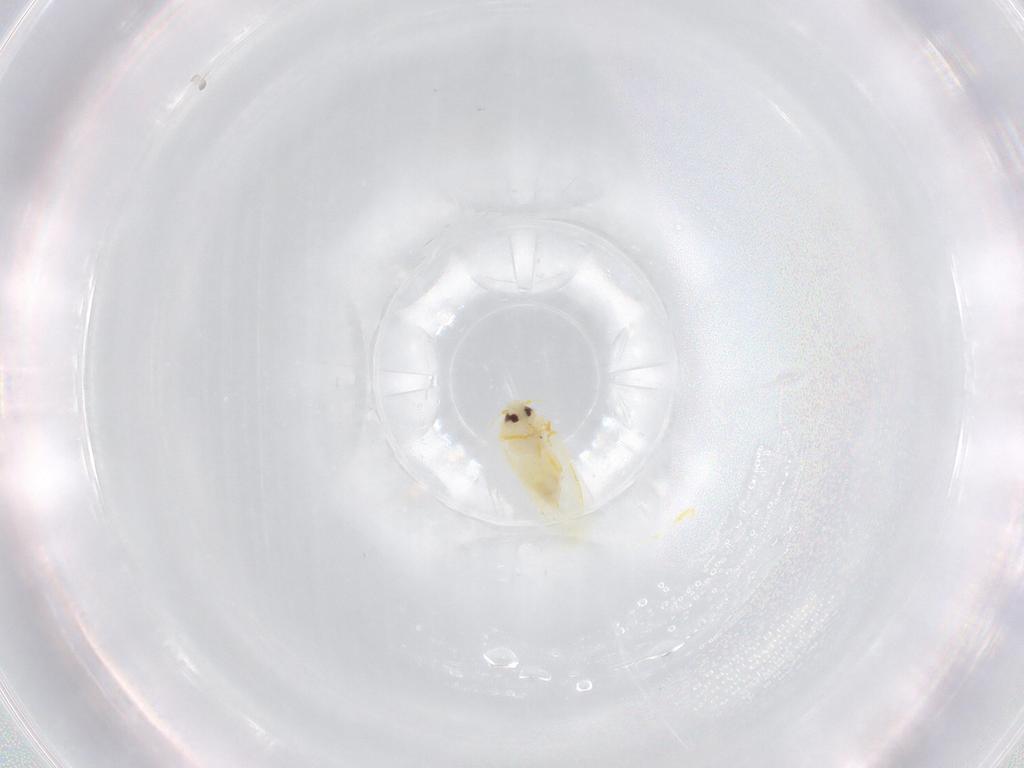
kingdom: Animalia
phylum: Arthropoda
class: Insecta
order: Hemiptera
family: Aleyrodidae
